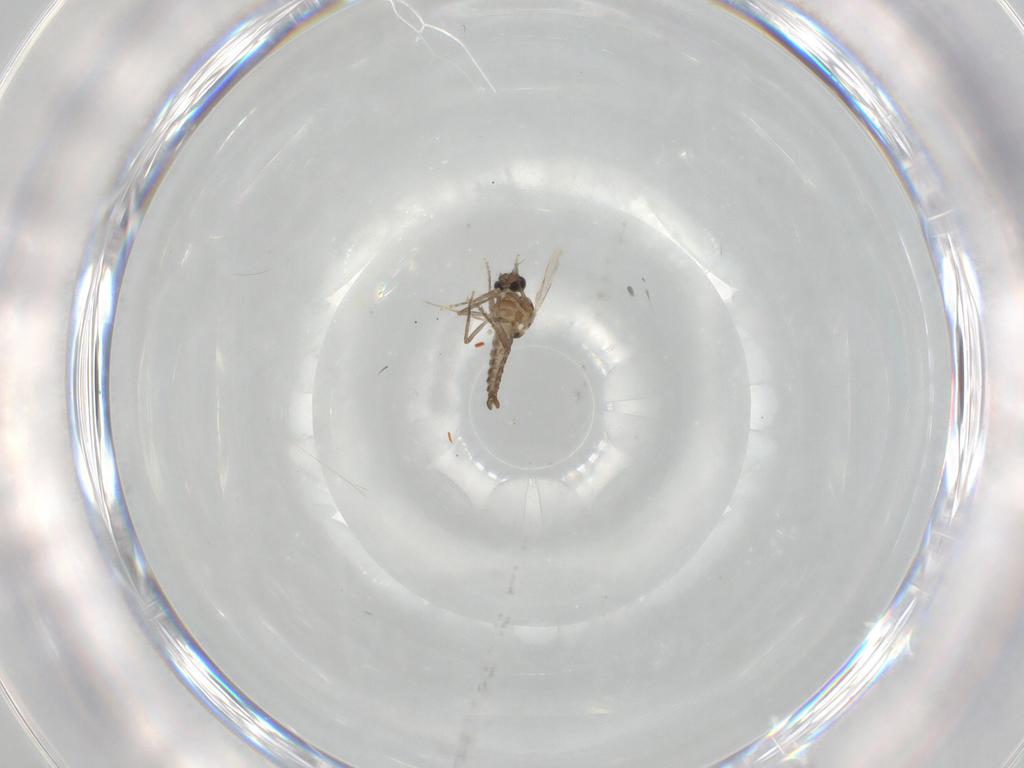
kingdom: Animalia
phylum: Arthropoda
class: Insecta
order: Diptera
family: Ceratopogonidae
